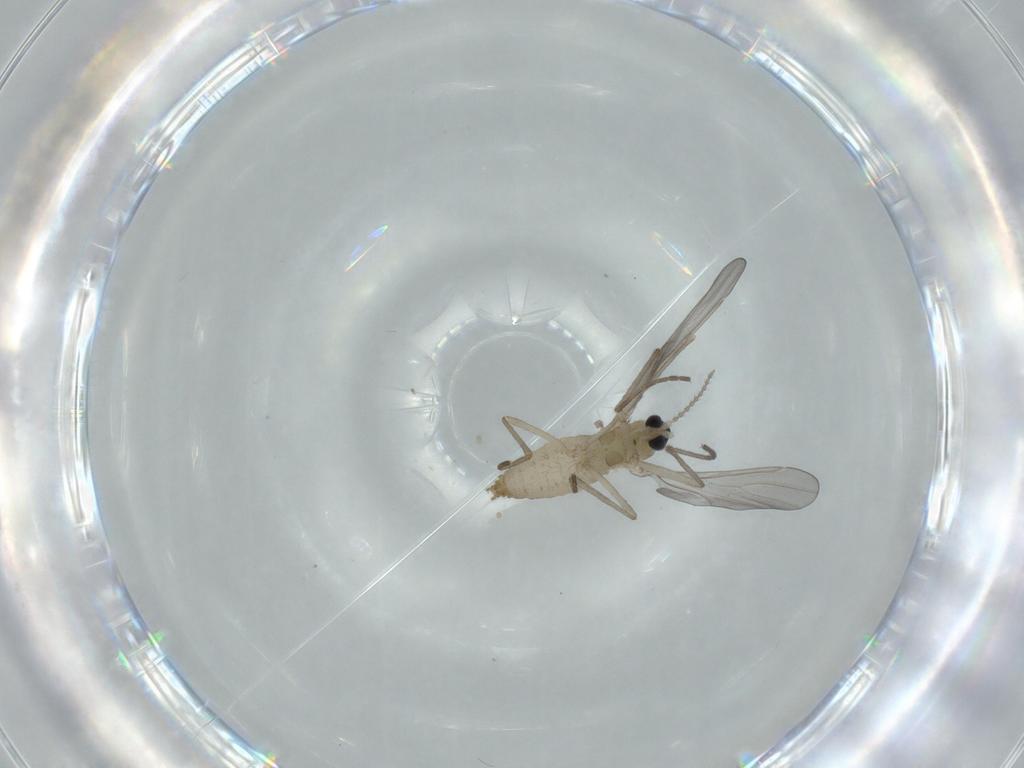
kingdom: Animalia
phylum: Arthropoda
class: Insecta
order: Diptera
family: Cecidomyiidae
